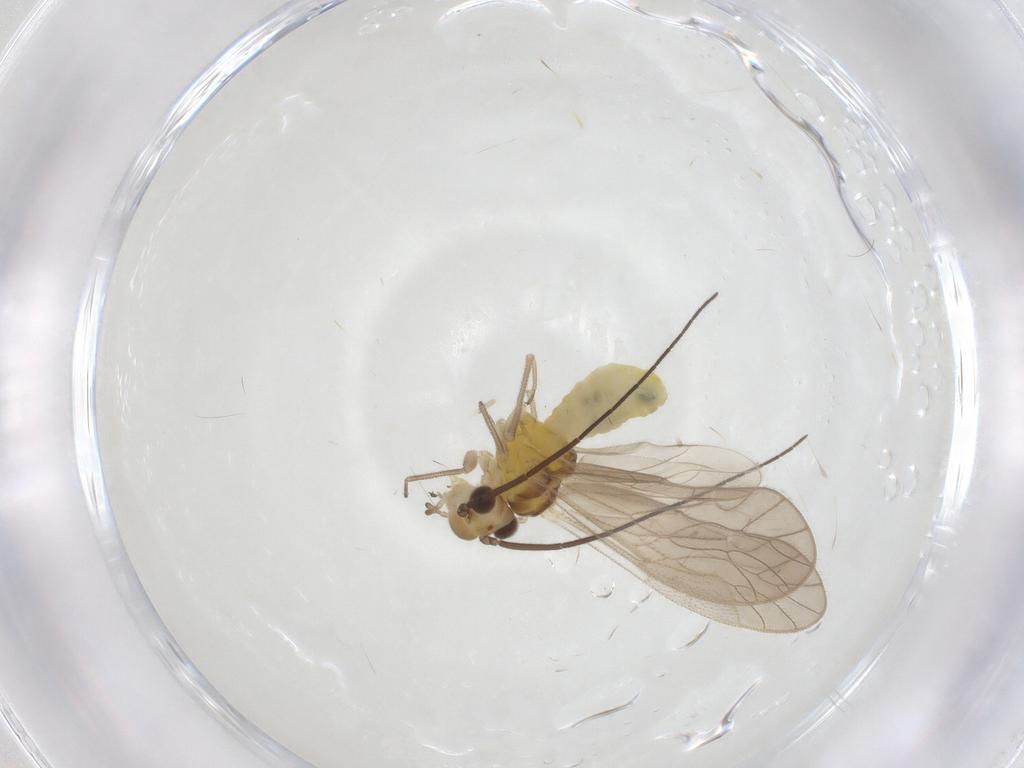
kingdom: Animalia
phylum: Arthropoda
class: Insecta
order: Psocodea
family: Caeciliusidae
